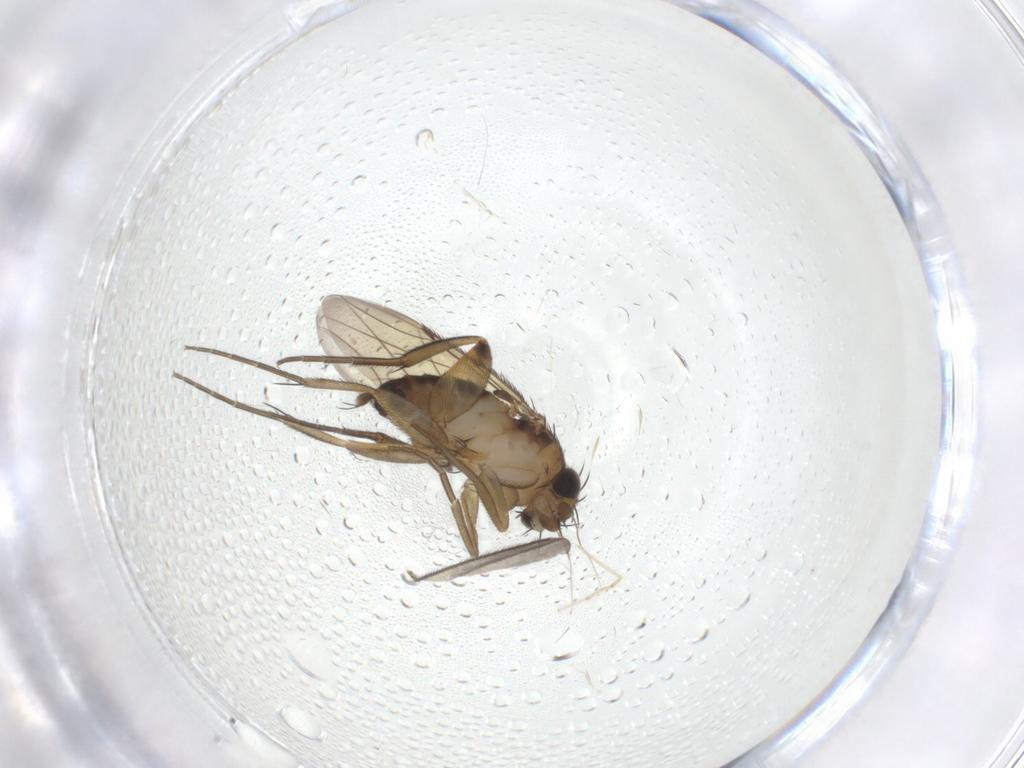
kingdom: Animalia
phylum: Arthropoda
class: Insecta
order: Diptera
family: Phoridae
